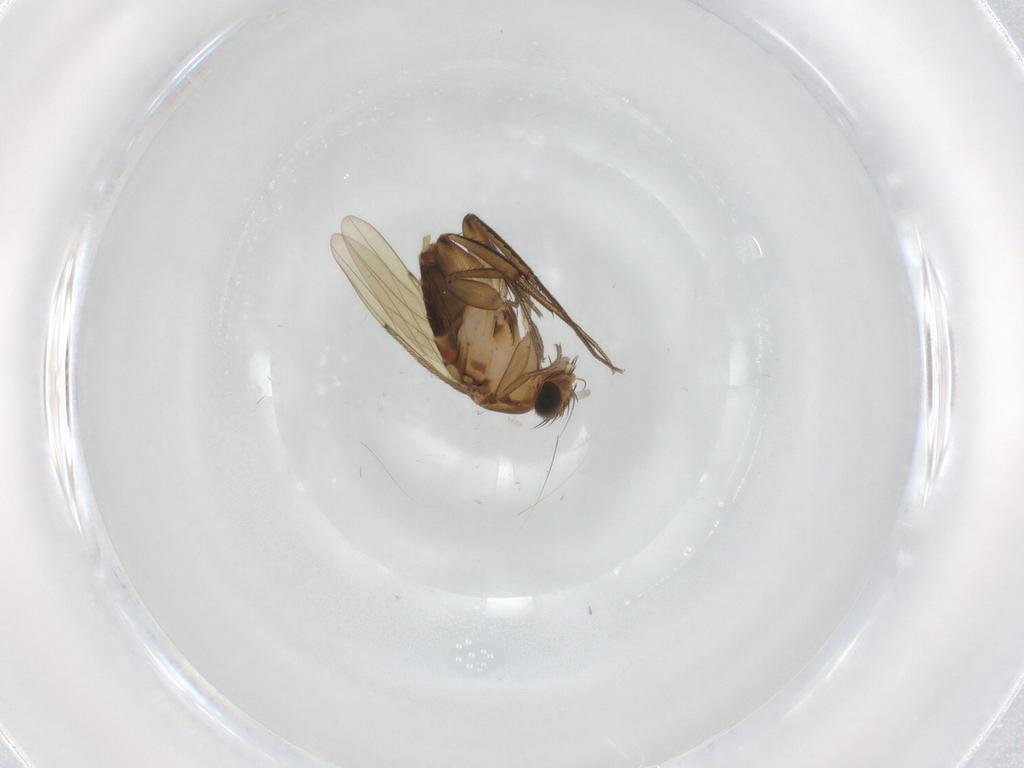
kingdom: Animalia
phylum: Arthropoda
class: Insecta
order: Diptera
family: Phoridae
